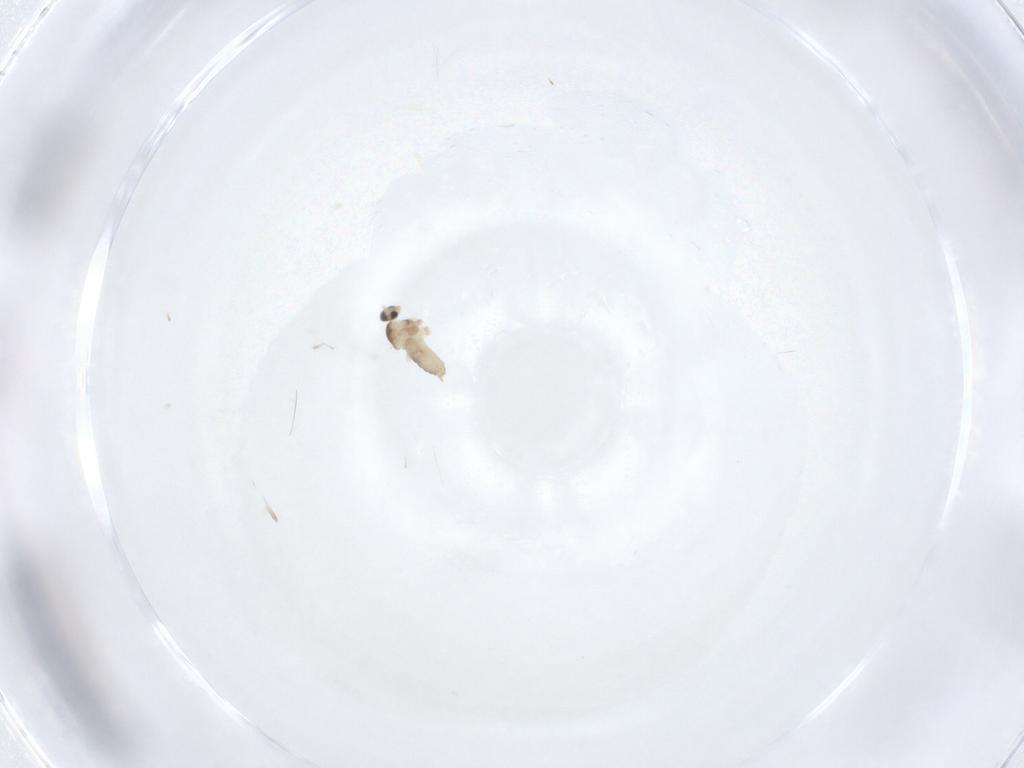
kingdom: Animalia
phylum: Arthropoda
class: Insecta
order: Diptera
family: Cecidomyiidae
